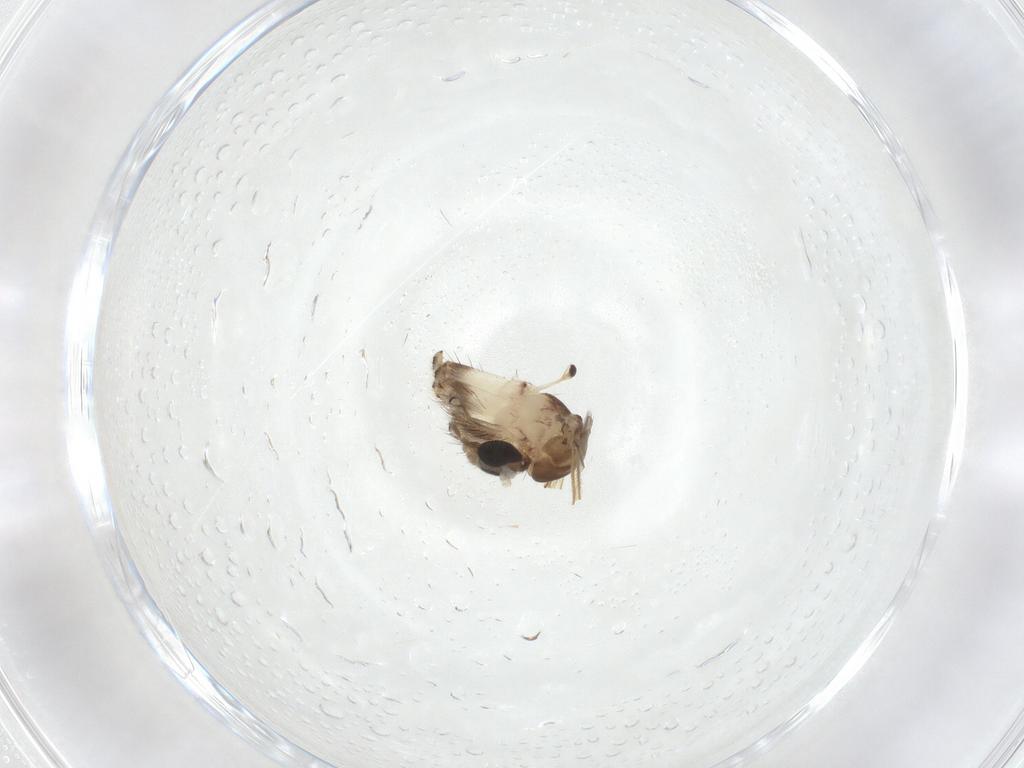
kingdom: Animalia
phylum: Arthropoda
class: Insecta
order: Diptera
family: Mycetophilidae
